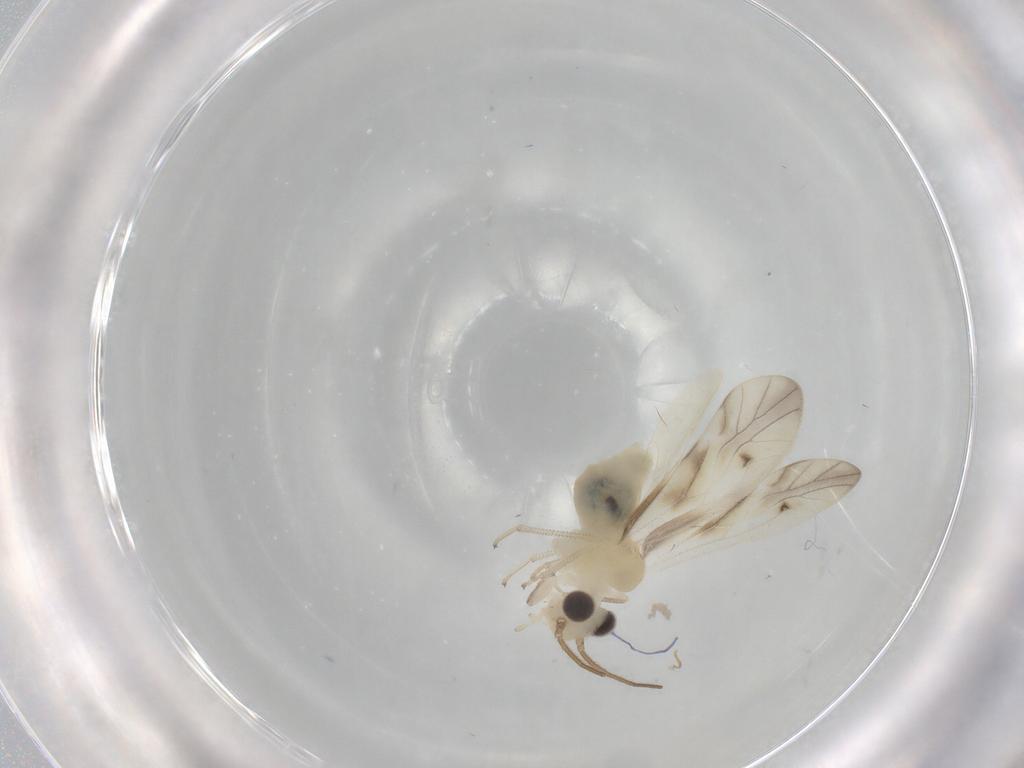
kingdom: Animalia
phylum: Arthropoda
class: Insecta
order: Psocodea
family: Caeciliusidae
